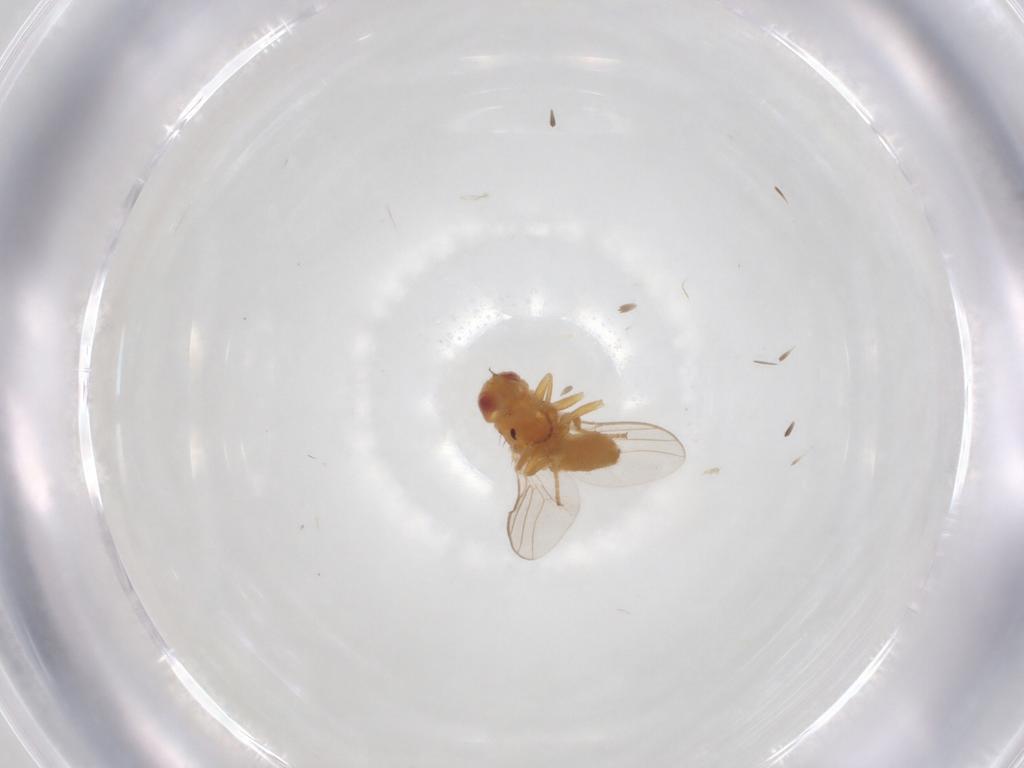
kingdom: Animalia
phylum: Arthropoda
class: Insecta
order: Diptera
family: Chloropidae
